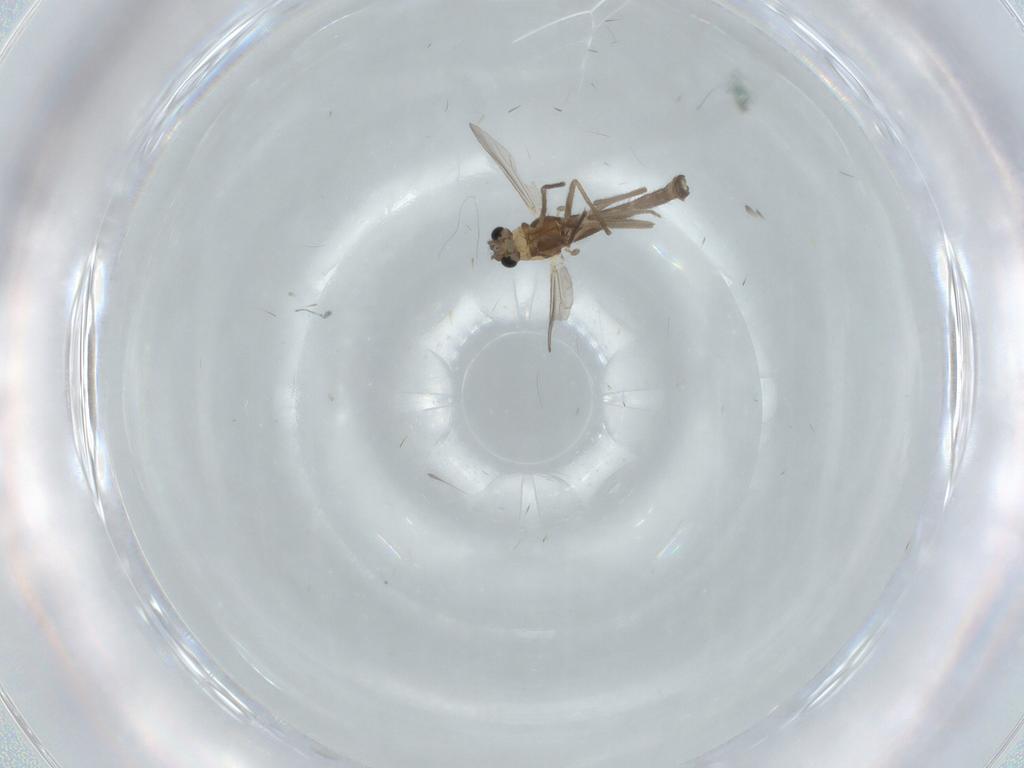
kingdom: Animalia
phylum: Arthropoda
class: Insecta
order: Diptera
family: Chironomidae
